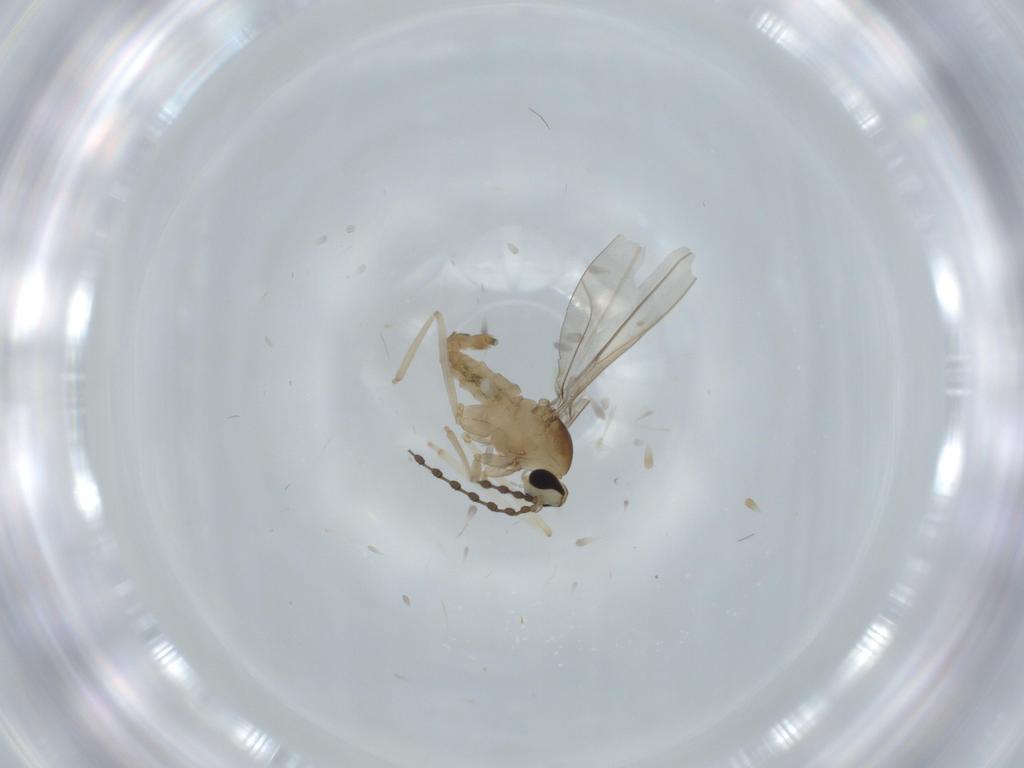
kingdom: Animalia
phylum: Arthropoda
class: Insecta
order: Diptera
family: Cecidomyiidae
